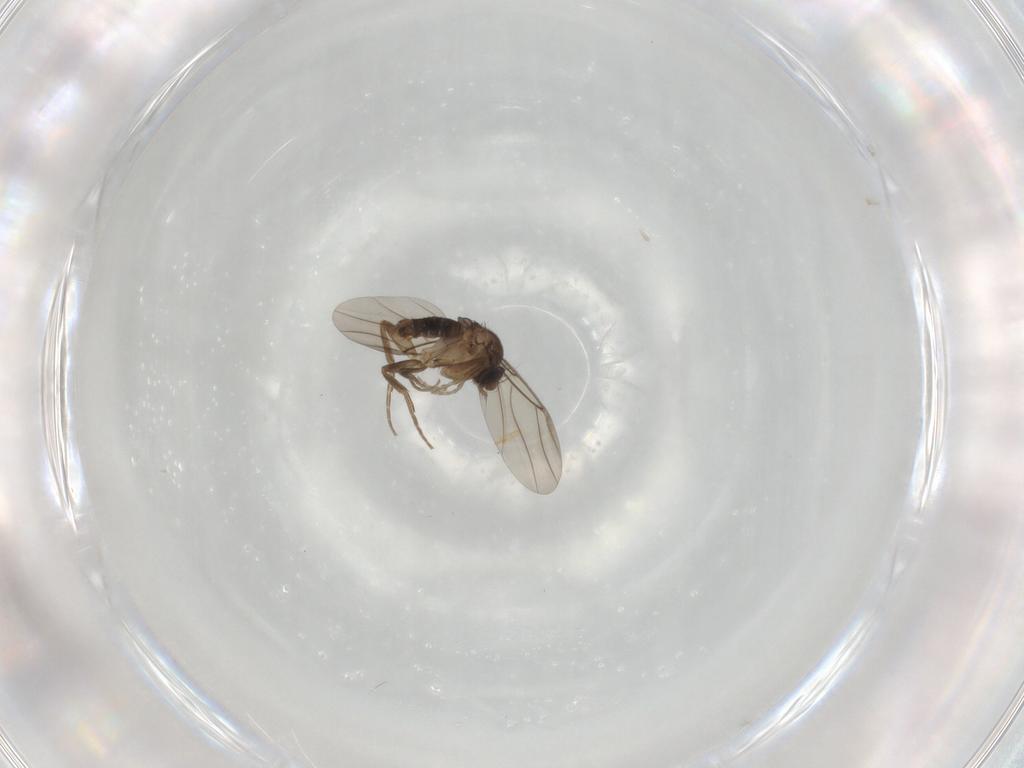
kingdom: Animalia
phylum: Arthropoda
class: Insecta
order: Diptera
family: Phoridae
